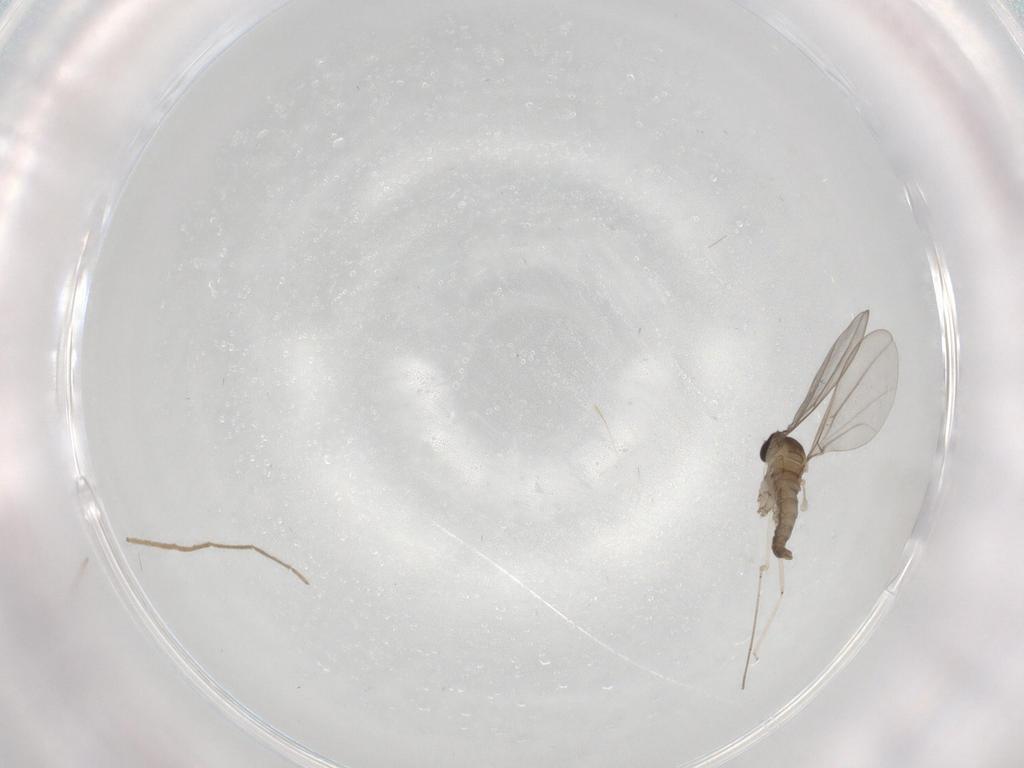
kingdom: Animalia
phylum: Arthropoda
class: Insecta
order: Diptera
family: Cecidomyiidae
